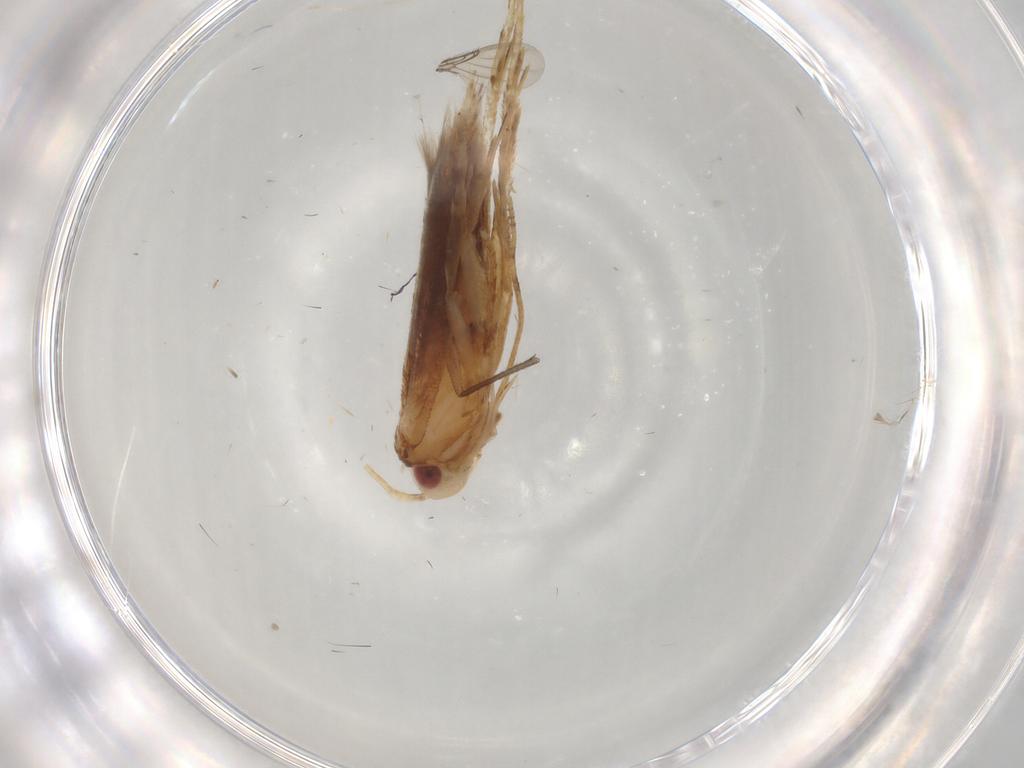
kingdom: Animalia
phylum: Arthropoda
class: Insecta
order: Lepidoptera
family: Cosmopterigidae
